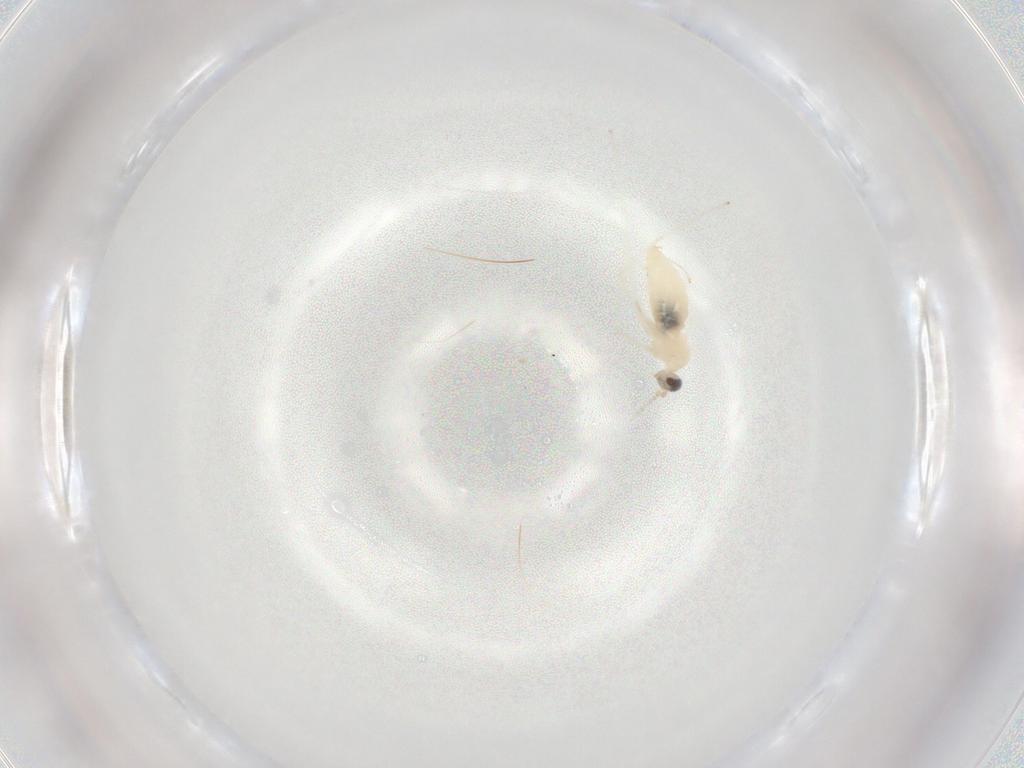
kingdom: Animalia
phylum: Arthropoda
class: Insecta
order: Diptera
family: Cecidomyiidae
